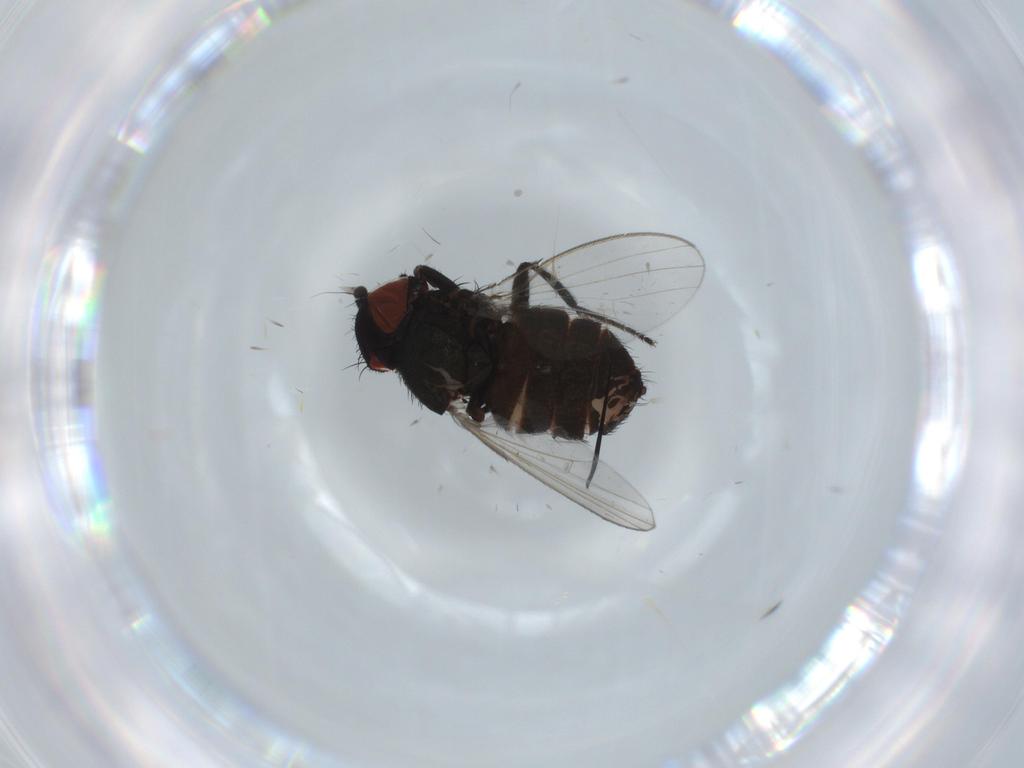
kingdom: Animalia
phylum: Arthropoda
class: Insecta
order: Diptera
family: Milichiidae
